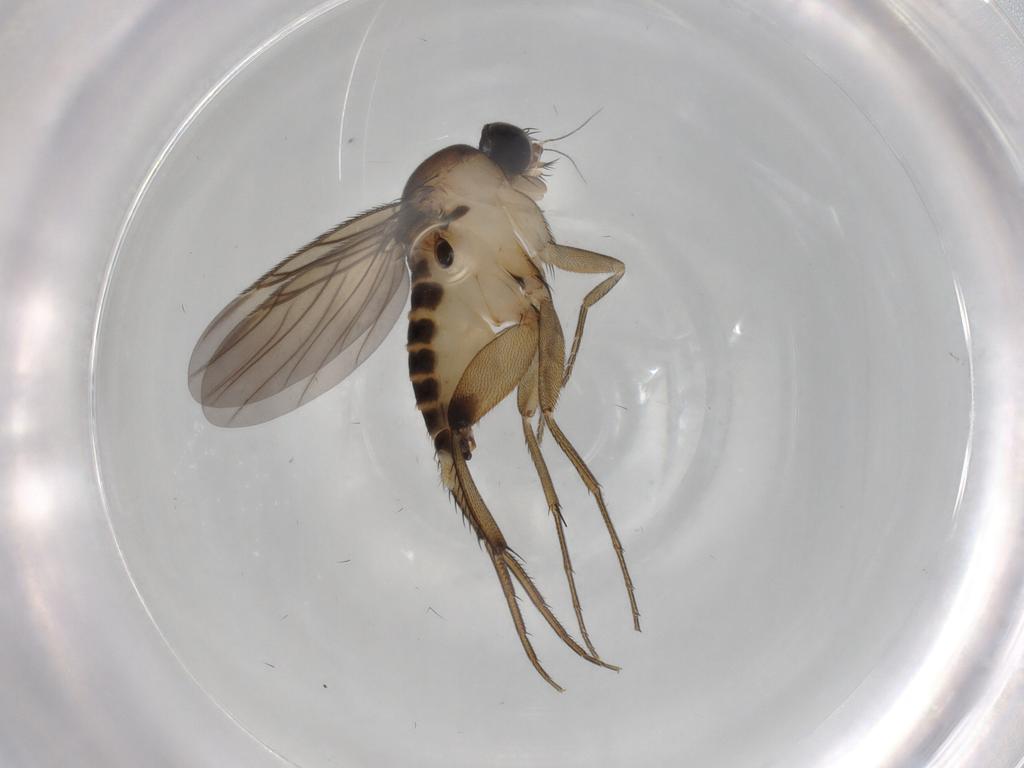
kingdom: Animalia
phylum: Arthropoda
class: Insecta
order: Diptera
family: Phoridae
